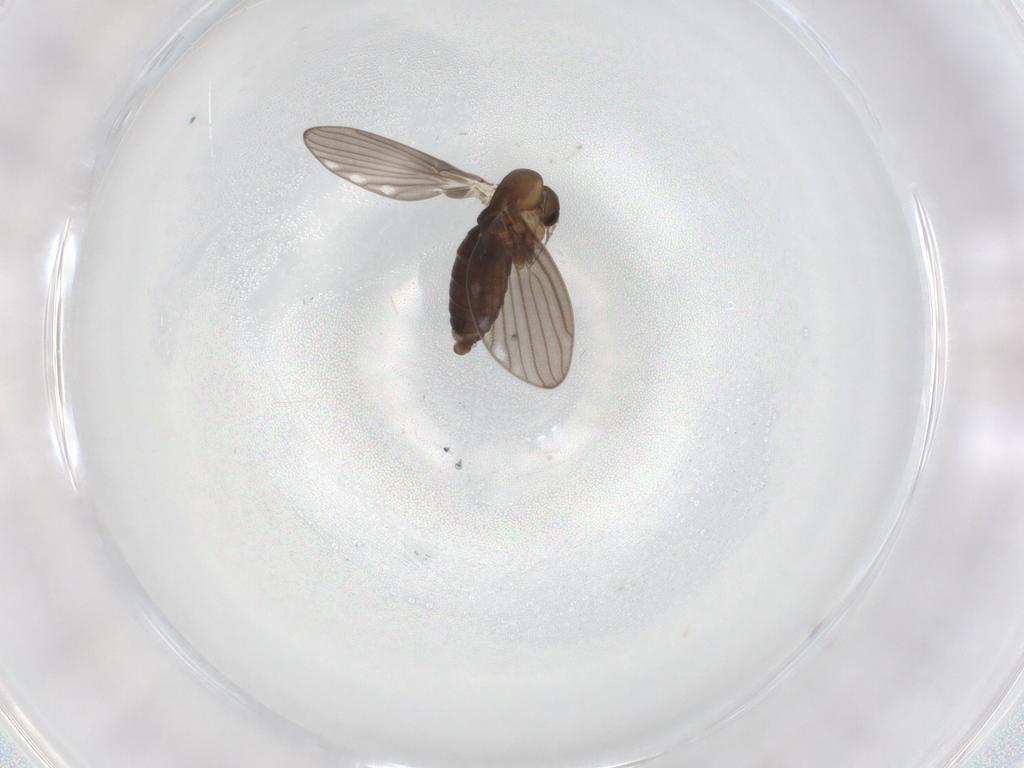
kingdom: Animalia
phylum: Arthropoda
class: Insecta
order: Diptera
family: Psychodidae
